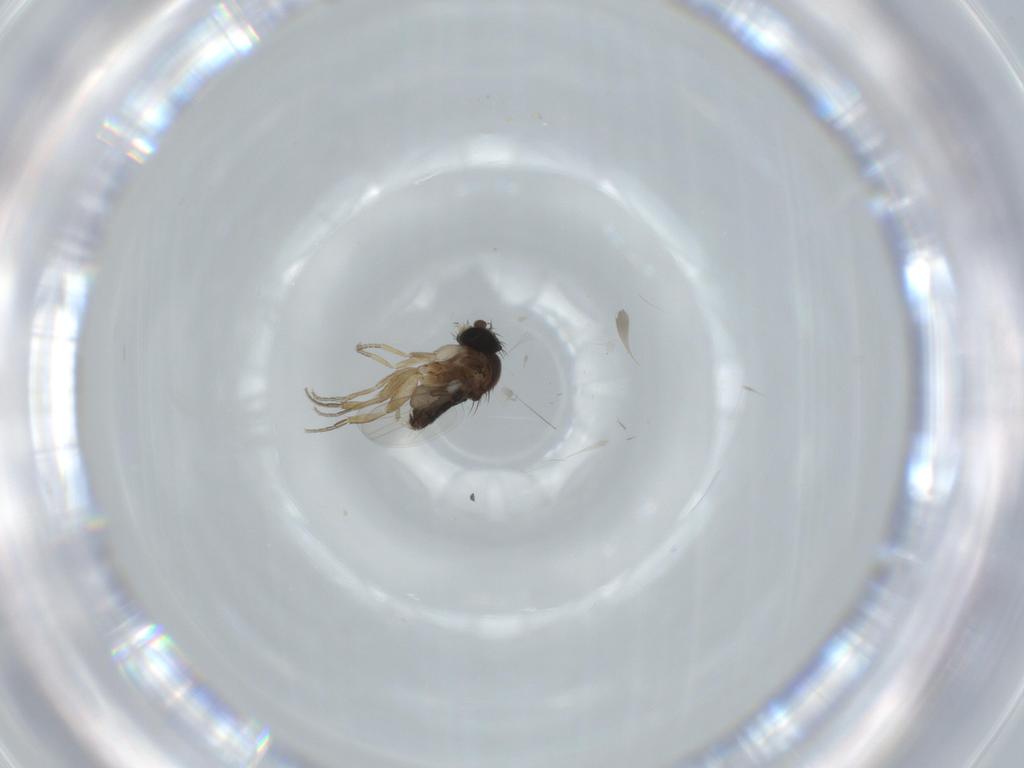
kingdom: Animalia
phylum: Arthropoda
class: Insecta
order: Diptera
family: Phoridae
